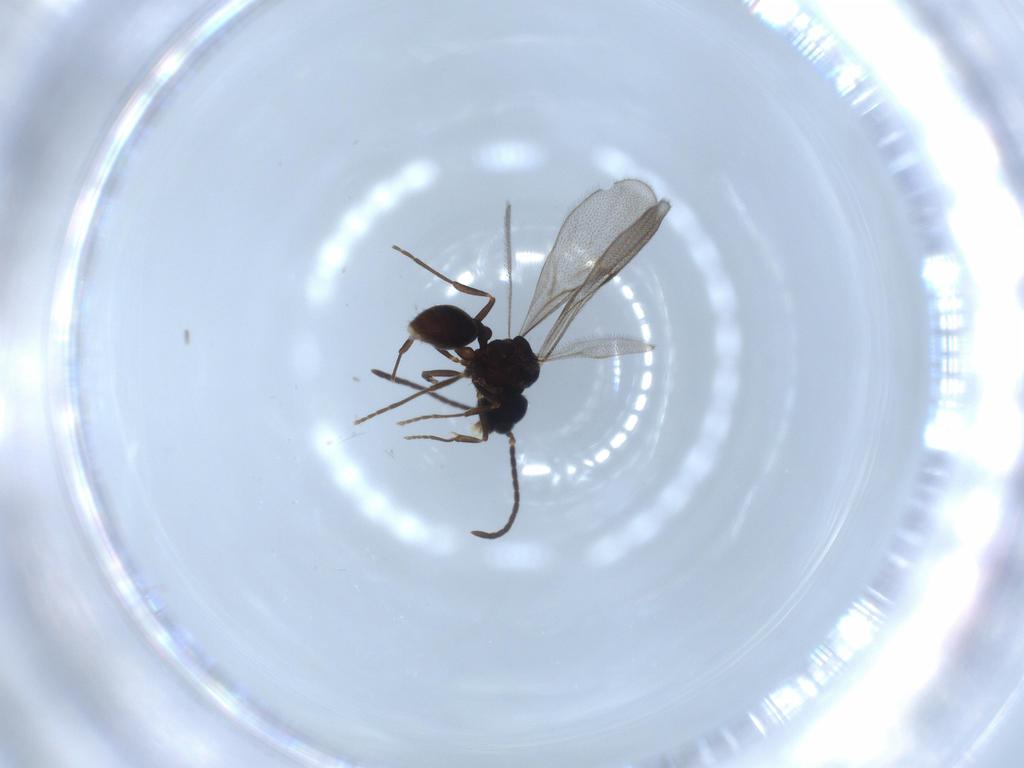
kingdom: Animalia
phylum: Arthropoda
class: Insecta
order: Hymenoptera
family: Formicidae
